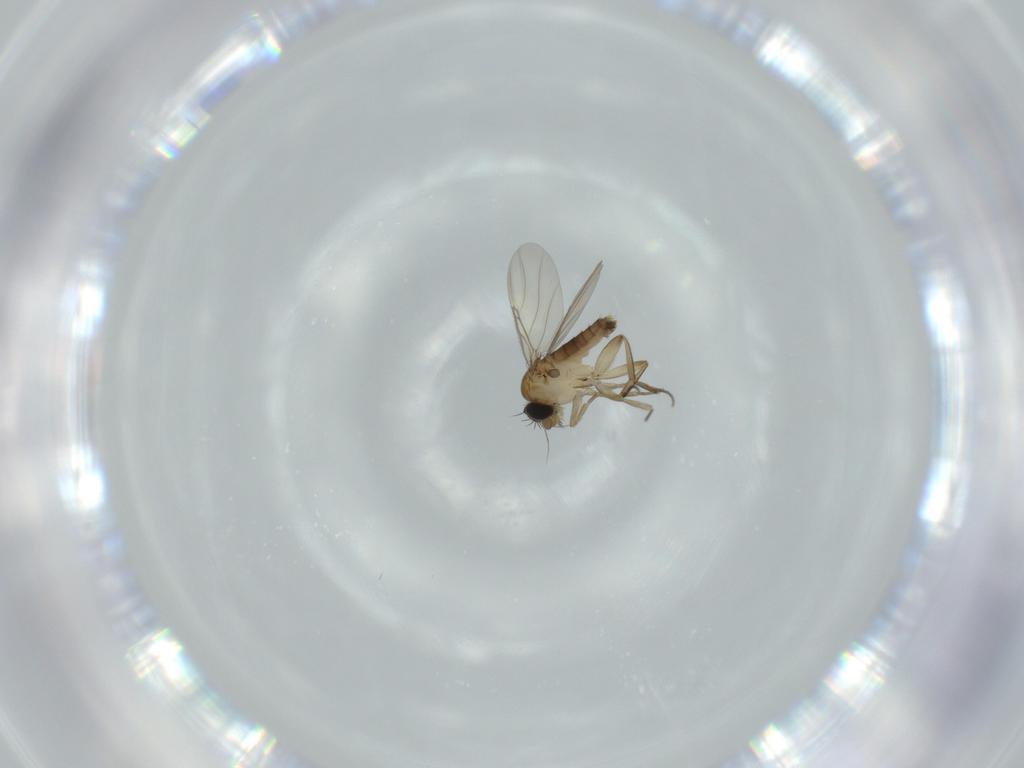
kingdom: Animalia
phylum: Arthropoda
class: Insecta
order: Diptera
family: Phoridae
